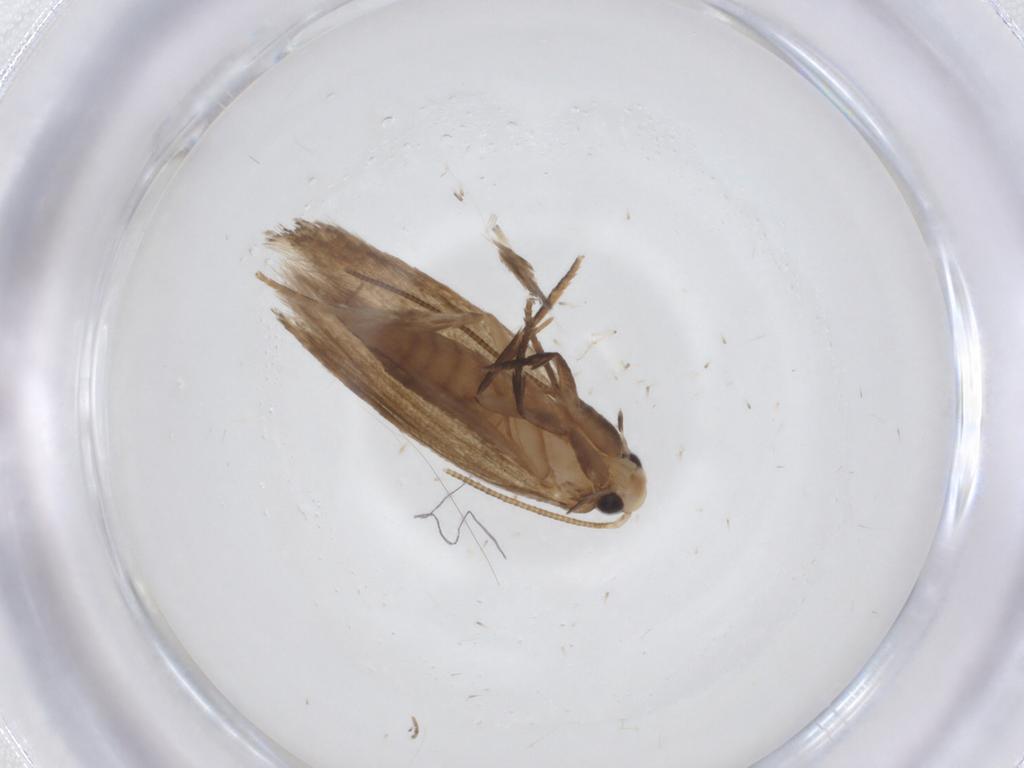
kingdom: Animalia
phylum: Arthropoda
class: Insecta
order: Lepidoptera
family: Tineidae
